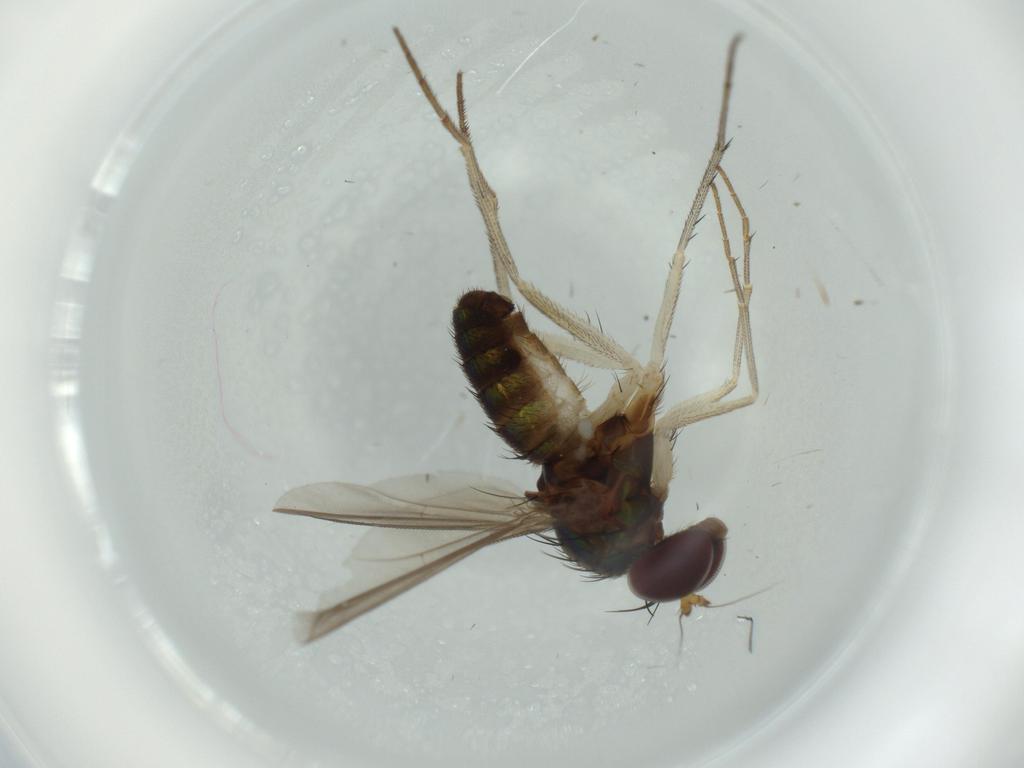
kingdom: Animalia
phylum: Arthropoda
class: Insecta
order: Diptera
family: Dolichopodidae
